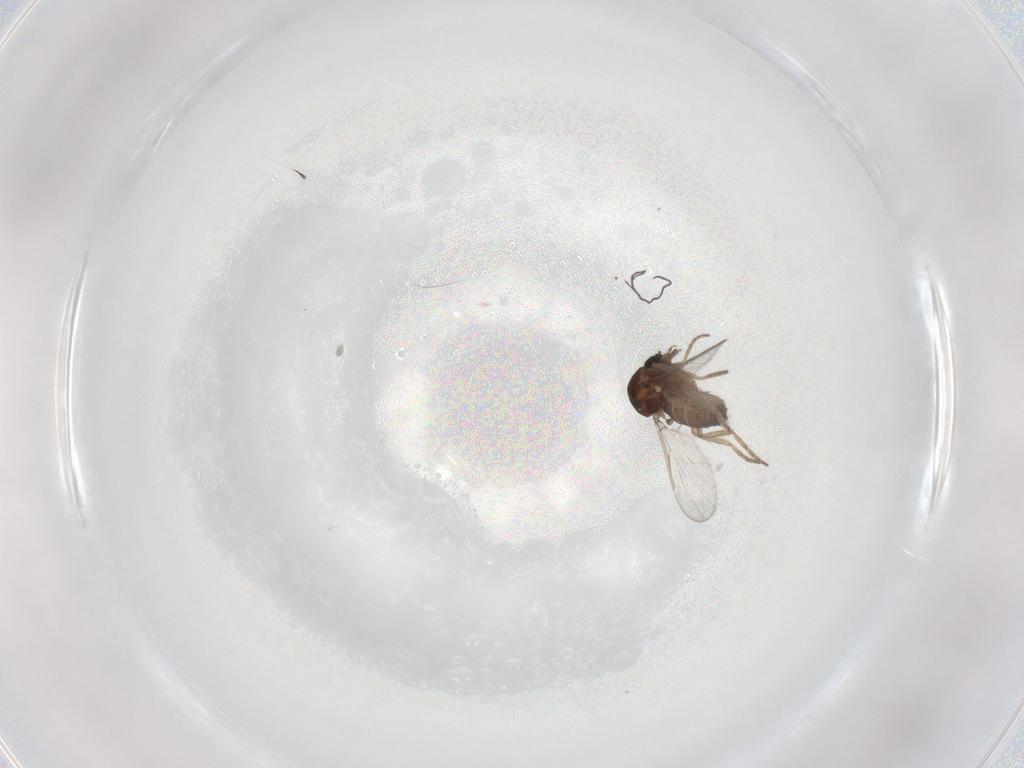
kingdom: Animalia
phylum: Arthropoda
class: Insecta
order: Diptera
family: Ceratopogonidae
